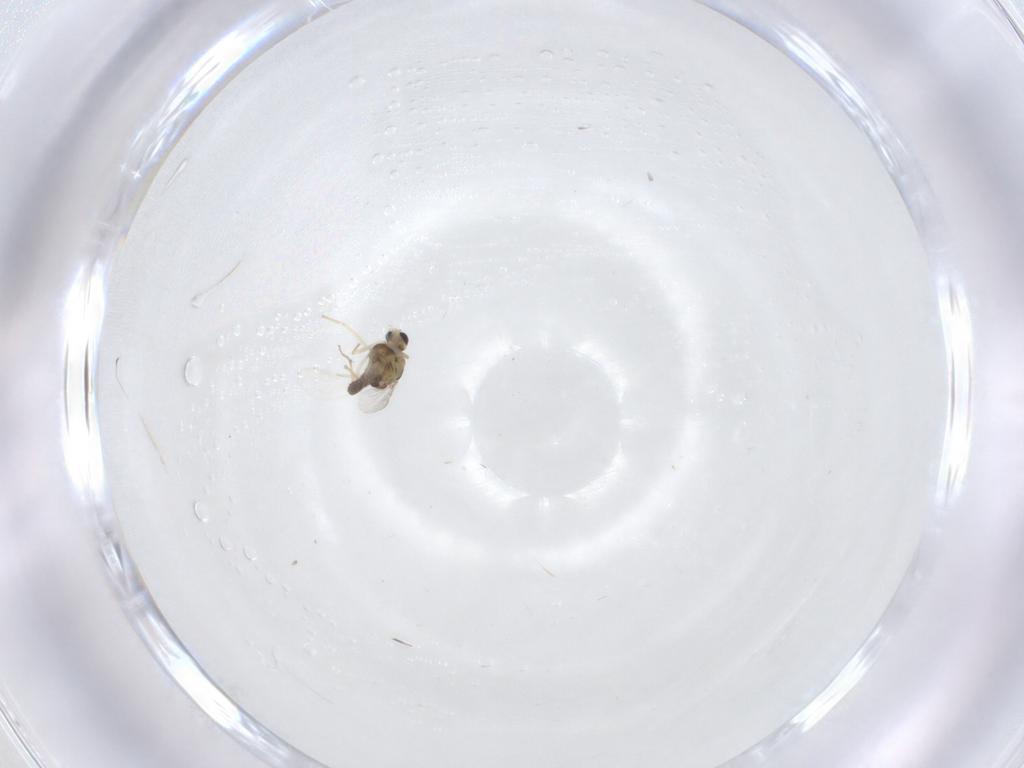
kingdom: Animalia
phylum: Arthropoda
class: Insecta
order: Diptera
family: Chironomidae
